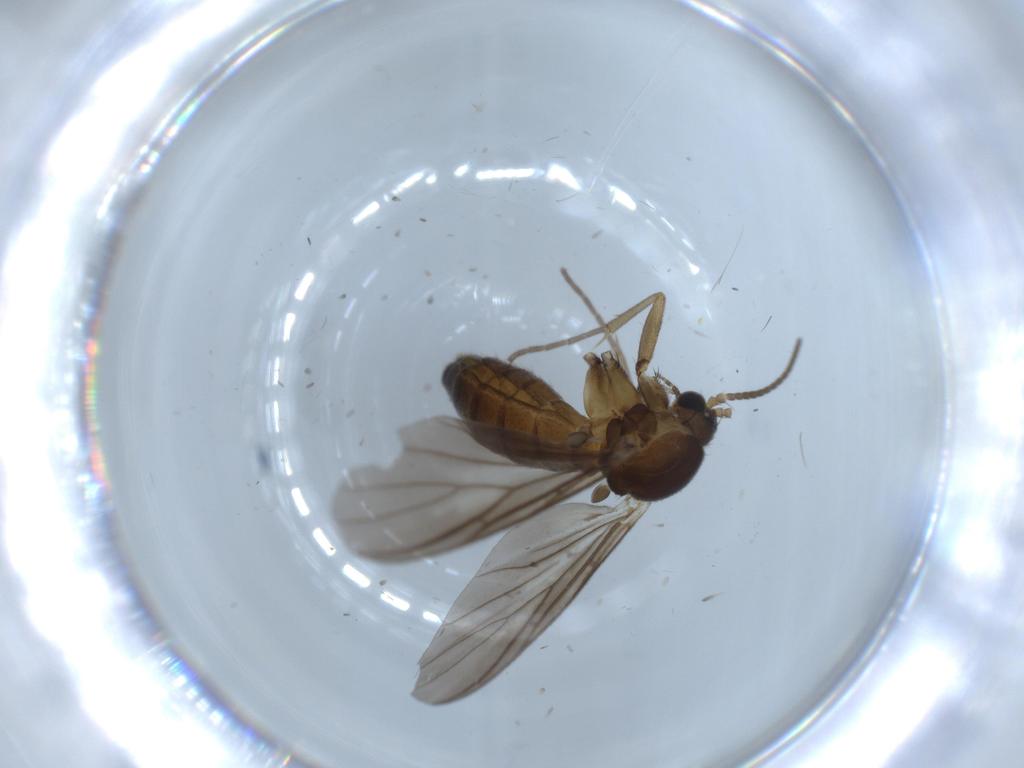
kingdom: Animalia
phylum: Arthropoda
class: Insecta
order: Diptera
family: Mycetophilidae
